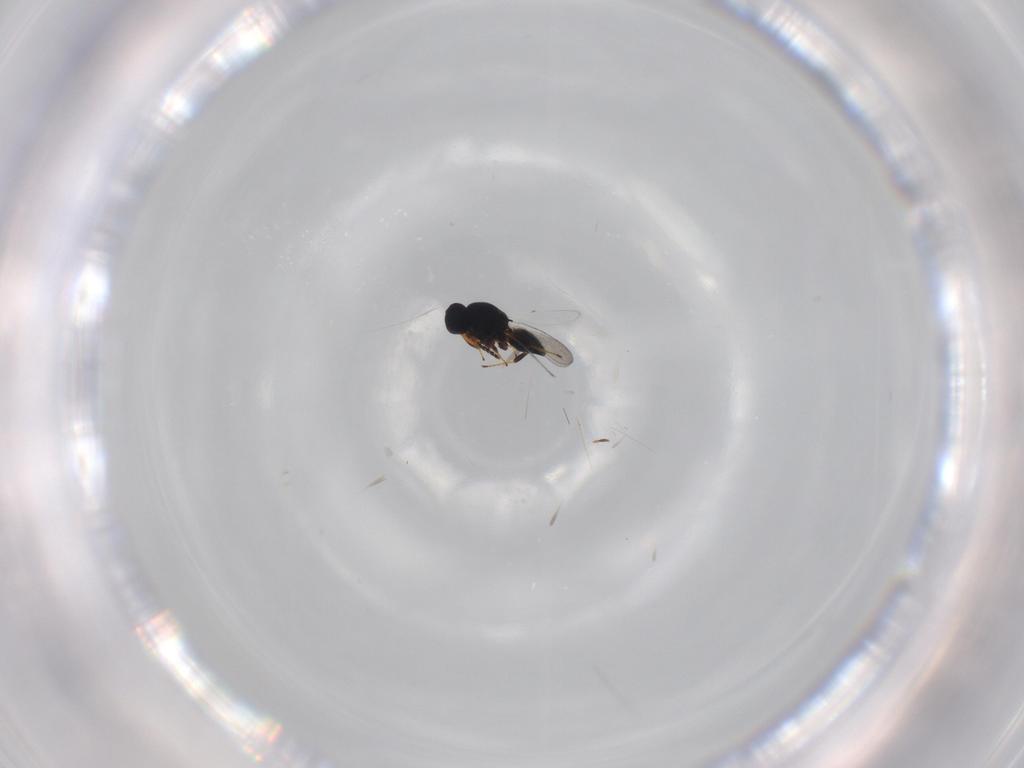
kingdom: Animalia
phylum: Arthropoda
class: Insecta
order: Hymenoptera
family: Platygastridae
